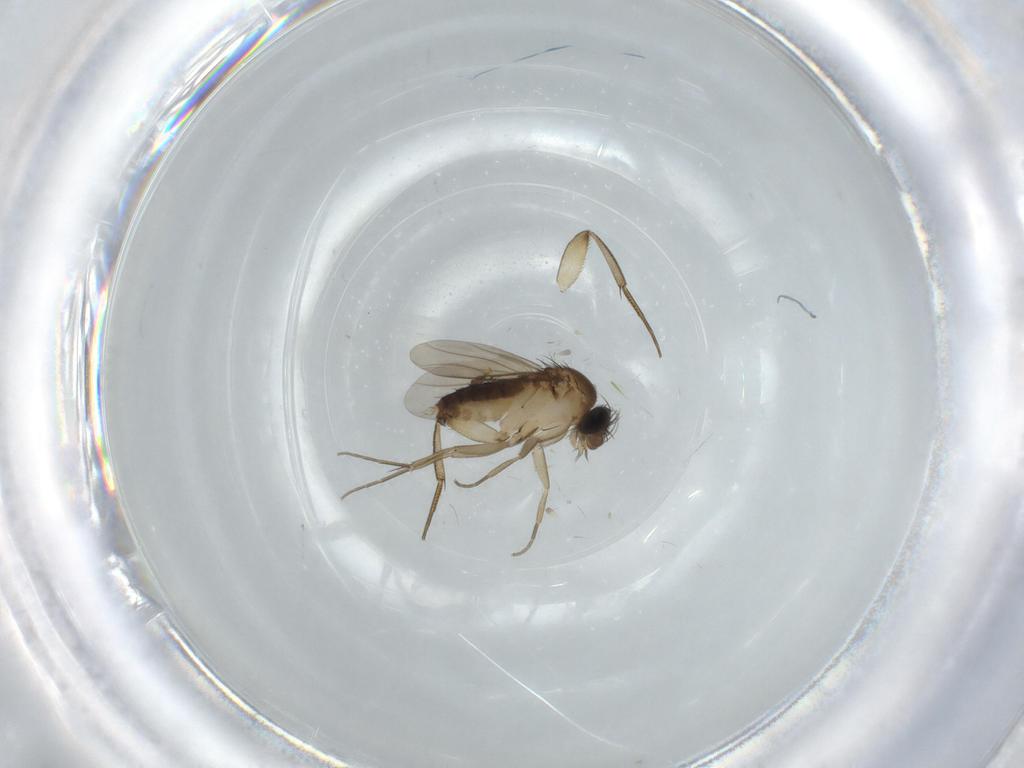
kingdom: Animalia
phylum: Arthropoda
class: Insecta
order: Diptera
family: Phoridae
